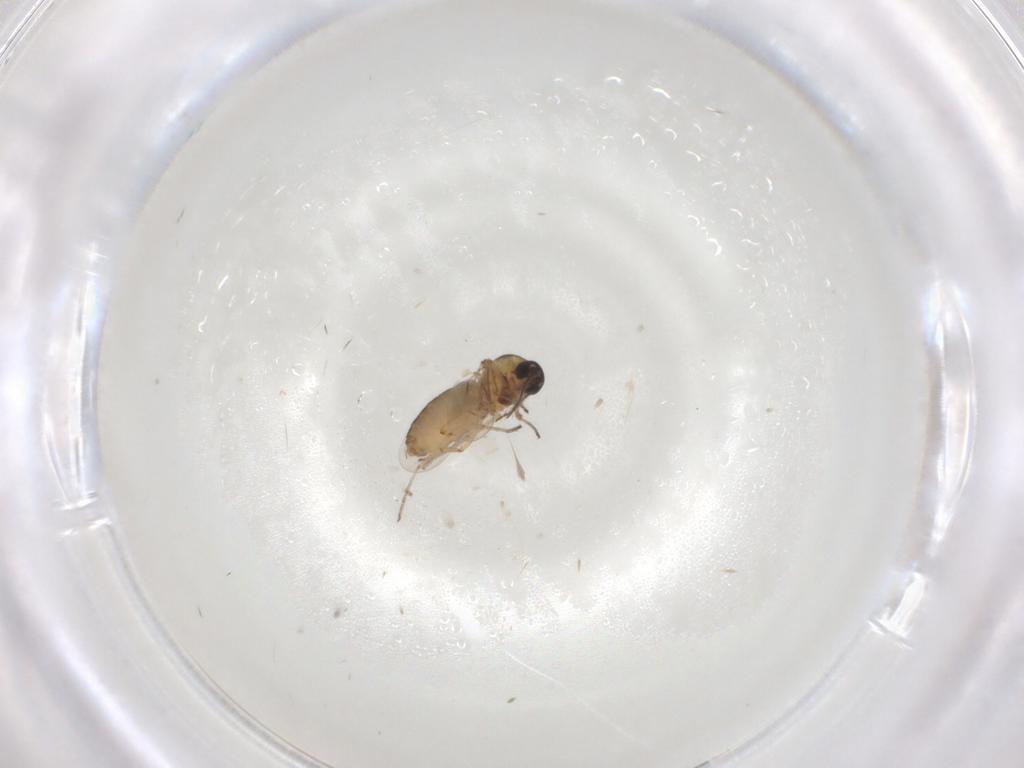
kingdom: Animalia
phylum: Arthropoda
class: Insecta
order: Diptera
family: Ceratopogonidae
